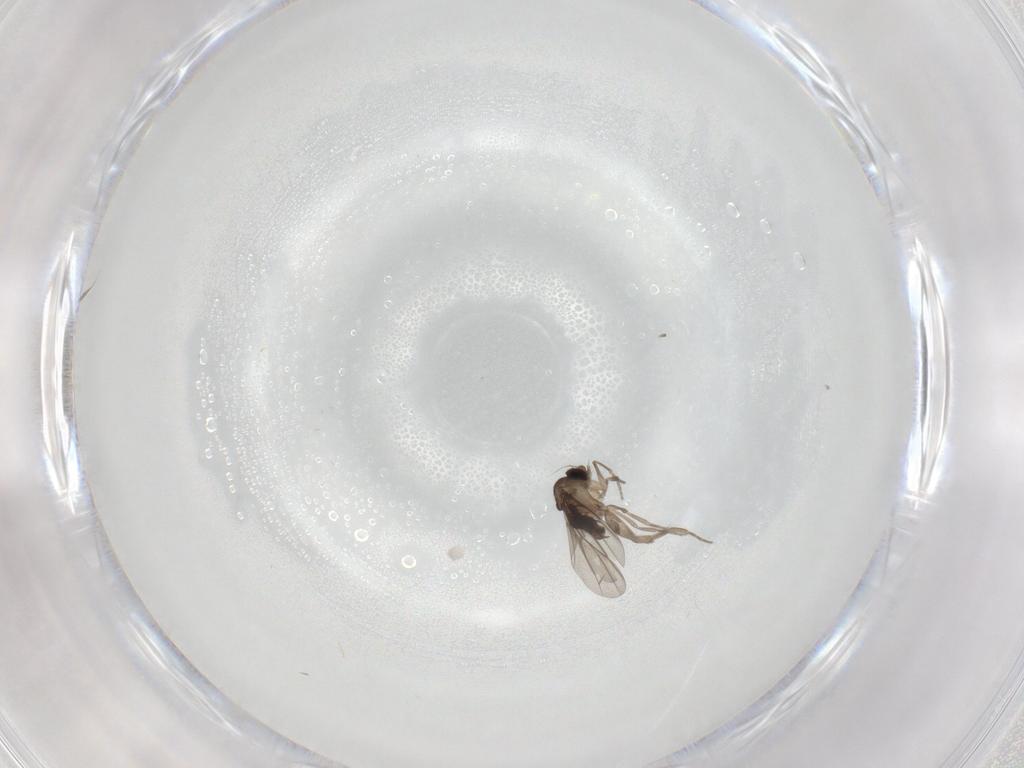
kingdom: Animalia
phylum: Arthropoda
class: Insecta
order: Diptera
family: Phoridae
